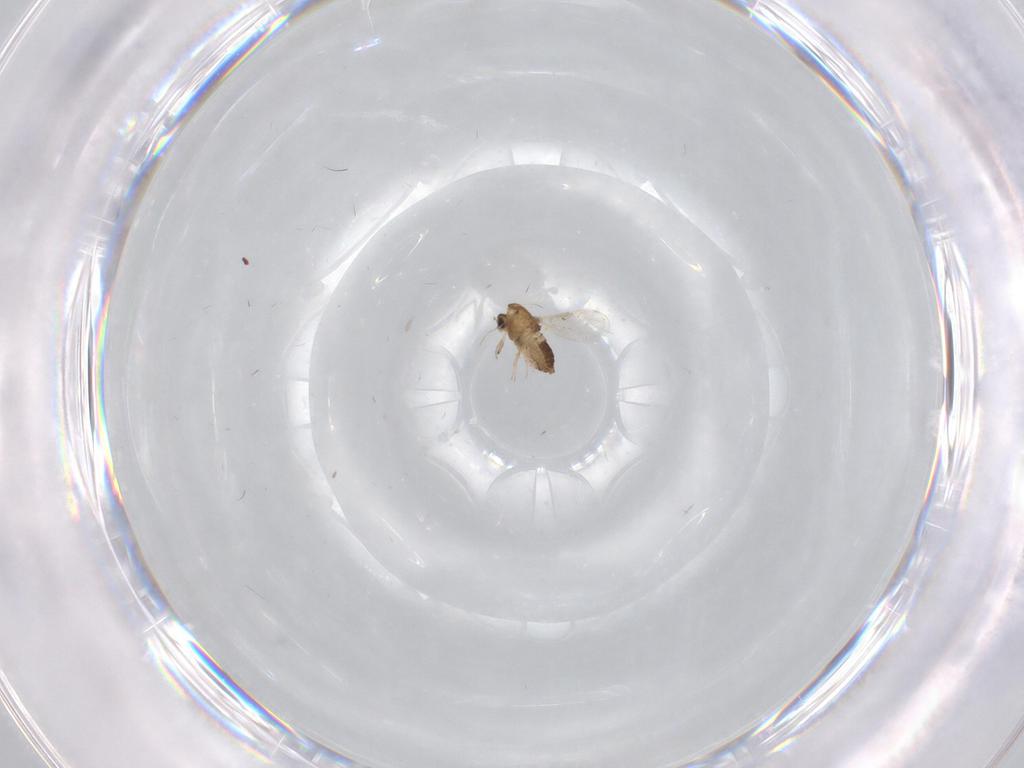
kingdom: Animalia
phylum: Arthropoda
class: Insecta
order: Diptera
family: Chironomidae
